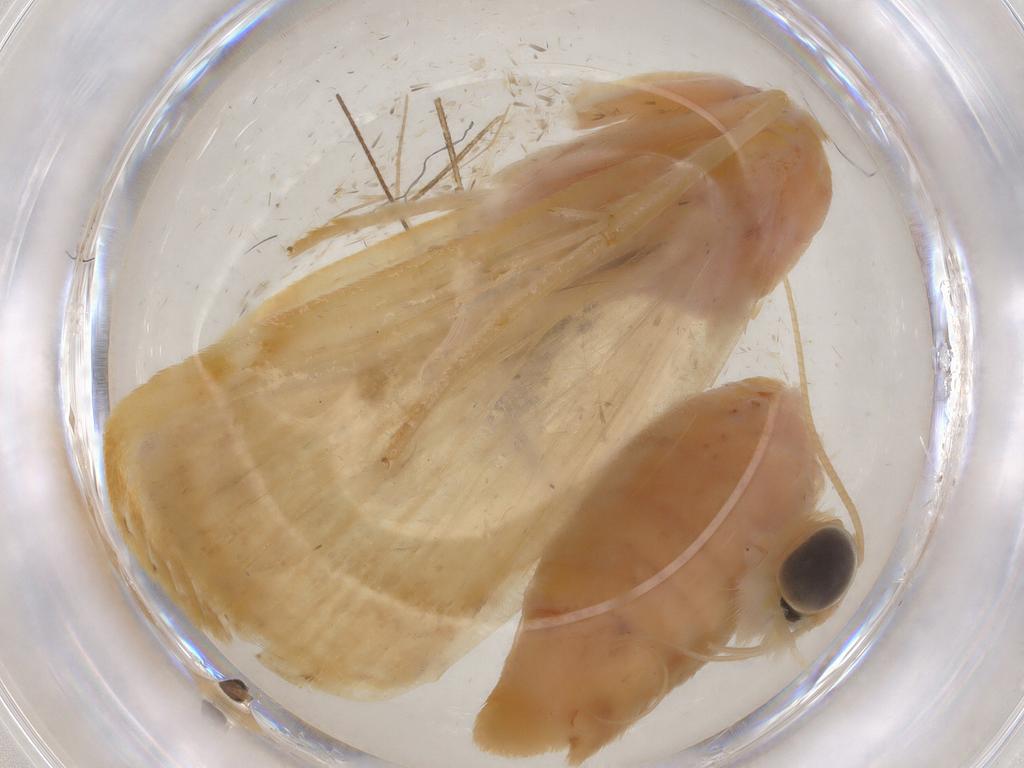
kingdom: Animalia
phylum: Arthropoda
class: Insecta
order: Lepidoptera
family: Crambidae
